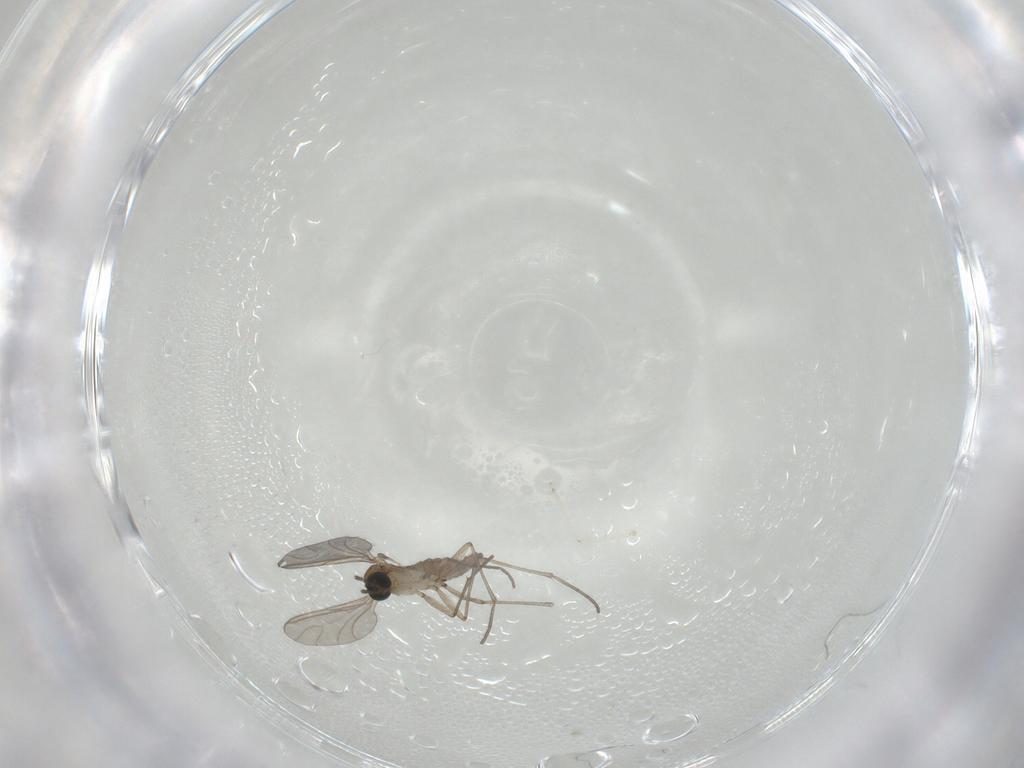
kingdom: Animalia
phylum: Arthropoda
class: Insecta
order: Diptera
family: Sciaridae
